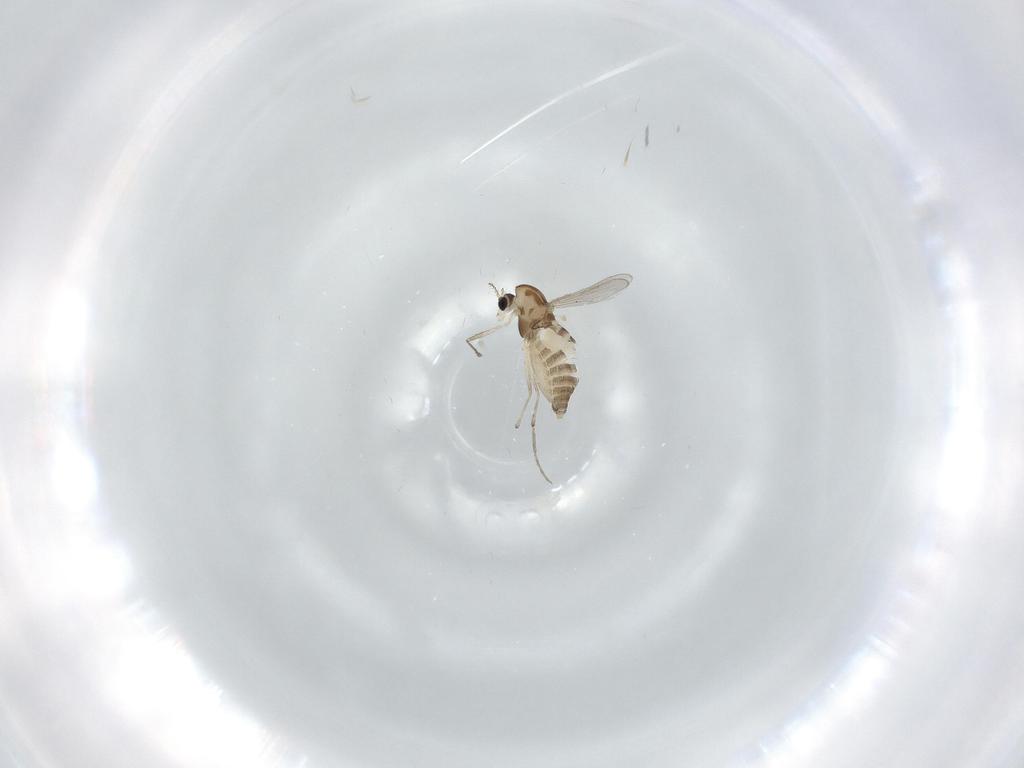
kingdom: Animalia
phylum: Arthropoda
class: Insecta
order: Diptera
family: Chironomidae
